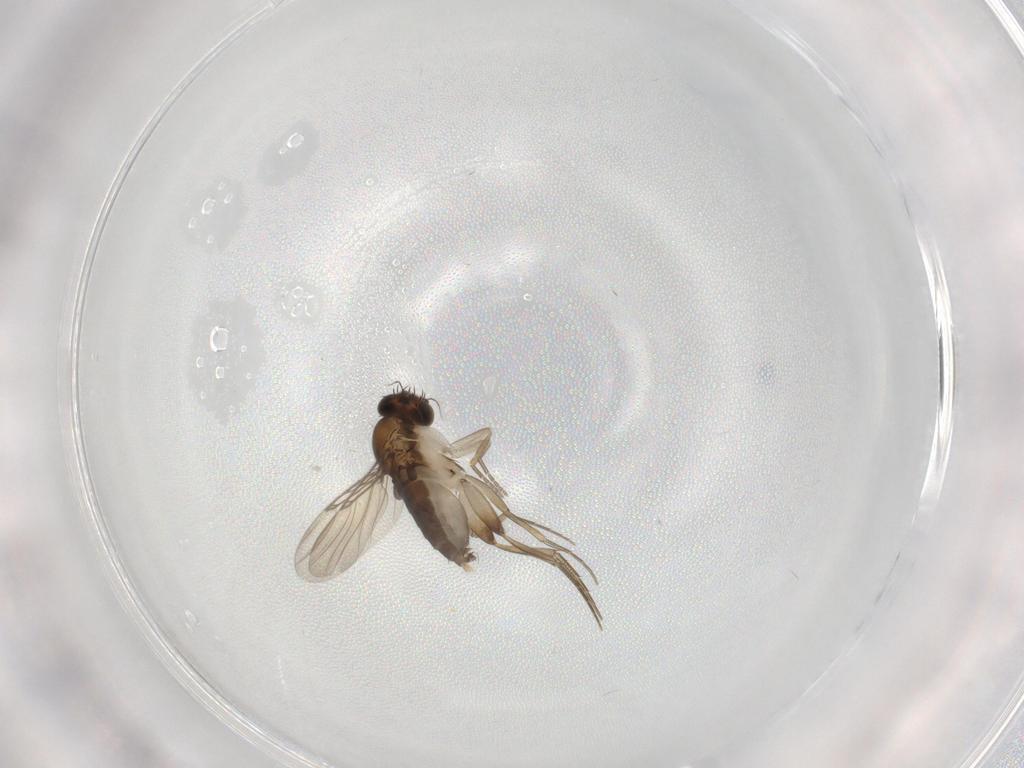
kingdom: Animalia
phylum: Arthropoda
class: Insecta
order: Diptera
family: Phoridae
